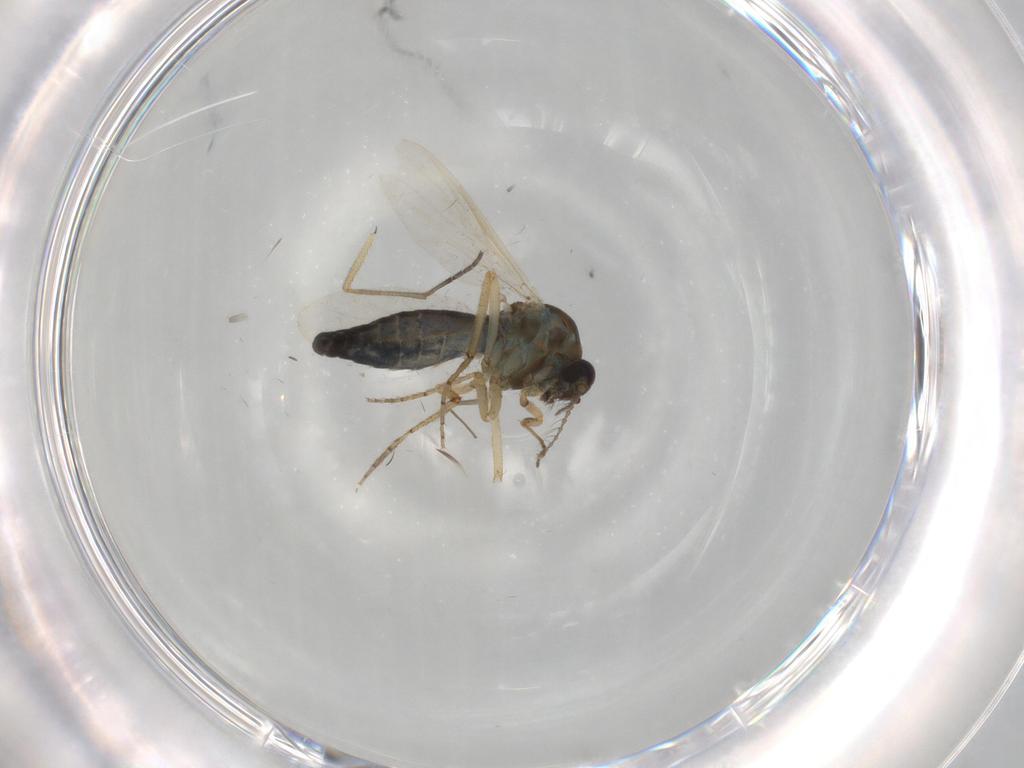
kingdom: Animalia
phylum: Arthropoda
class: Insecta
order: Diptera
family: Ceratopogonidae
